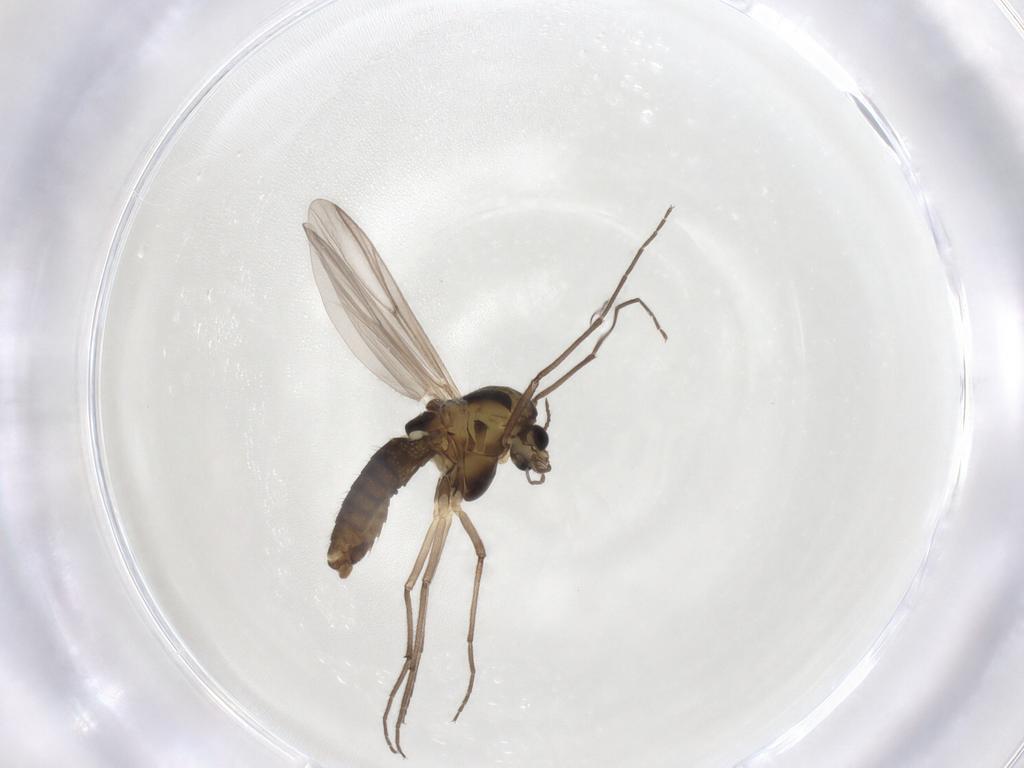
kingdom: Animalia
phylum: Arthropoda
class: Insecta
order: Diptera
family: Chironomidae
